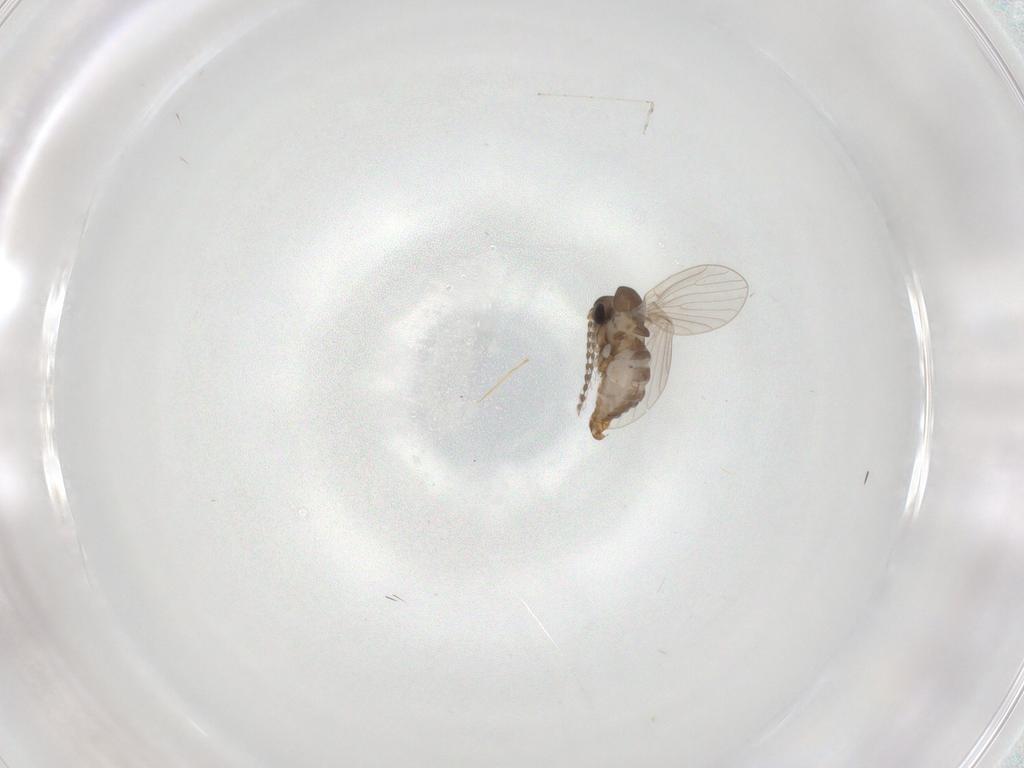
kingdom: Animalia
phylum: Arthropoda
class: Insecta
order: Diptera
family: Cecidomyiidae
